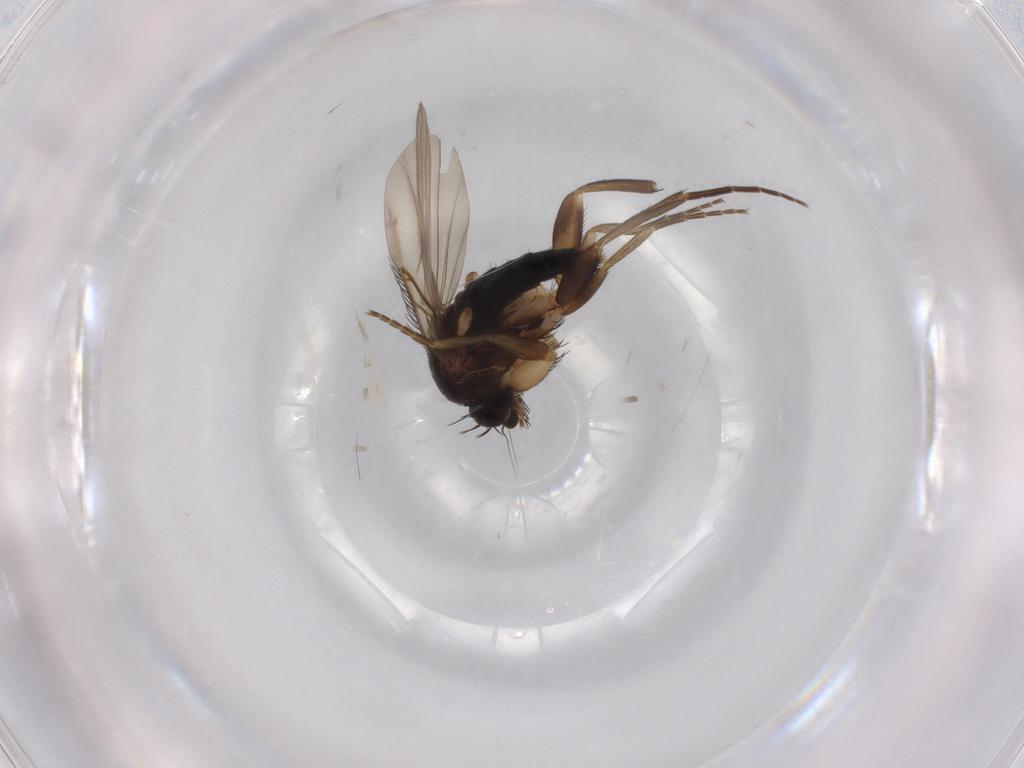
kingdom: Animalia
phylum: Arthropoda
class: Insecta
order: Diptera
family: Phoridae
